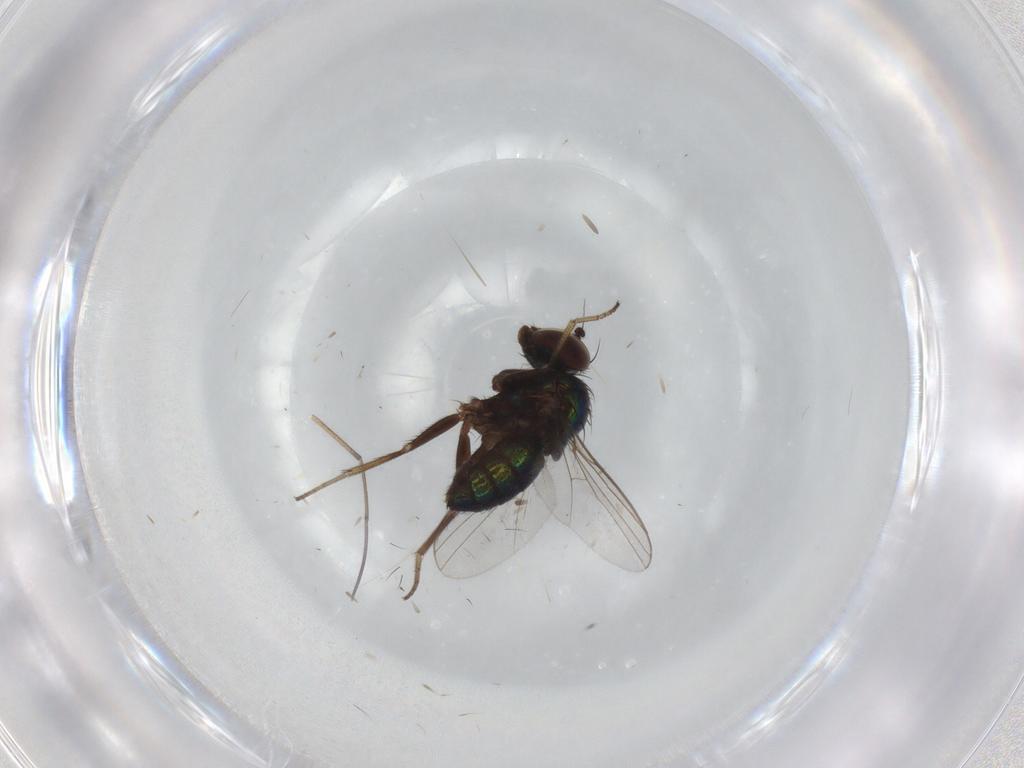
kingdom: Animalia
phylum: Arthropoda
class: Insecta
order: Diptera
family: Dolichopodidae
